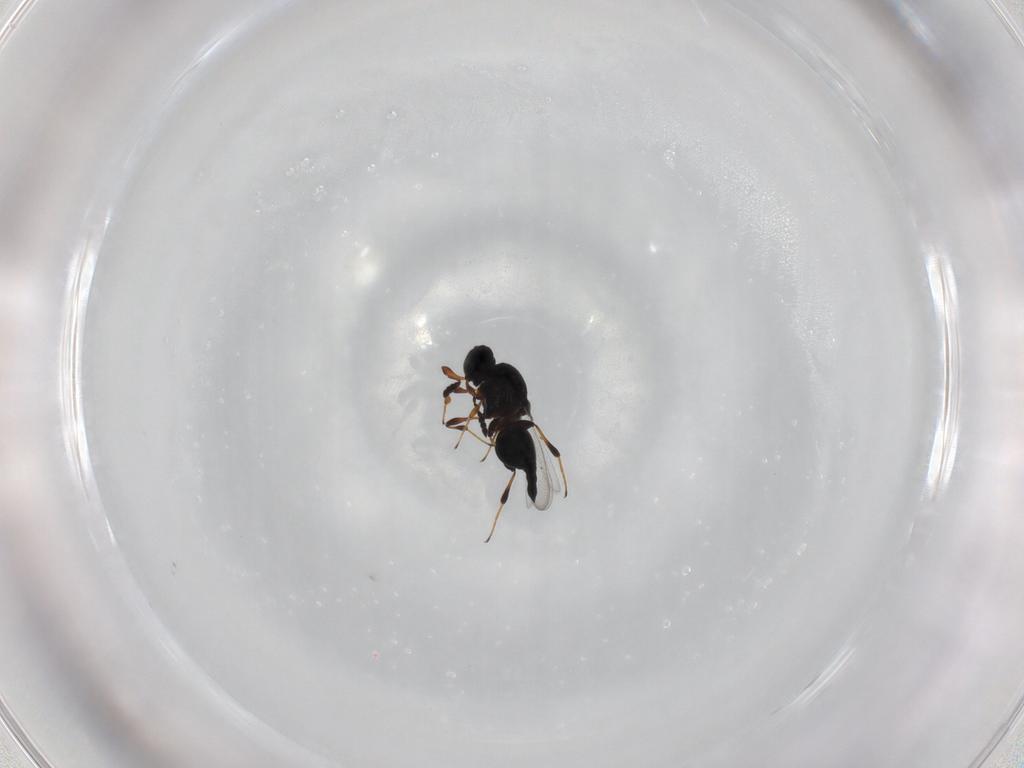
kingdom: Animalia
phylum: Arthropoda
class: Insecta
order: Hymenoptera
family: Platygastridae
